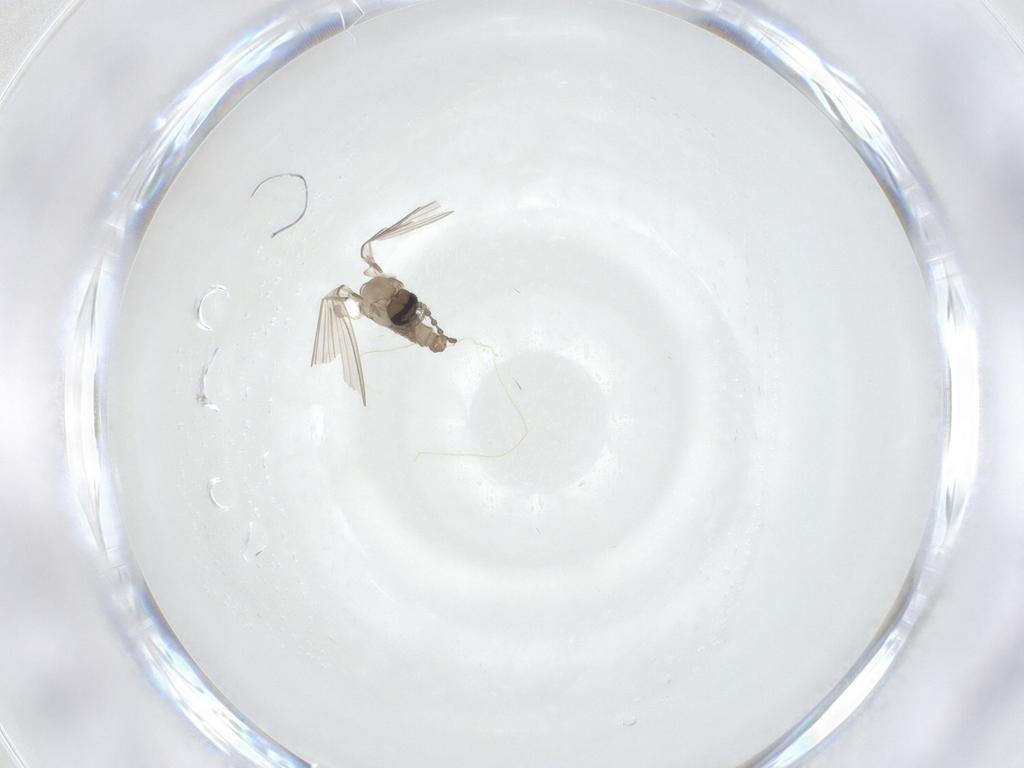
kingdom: Animalia
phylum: Arthropoda
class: Insecta
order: Diptera
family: Psychodidae
